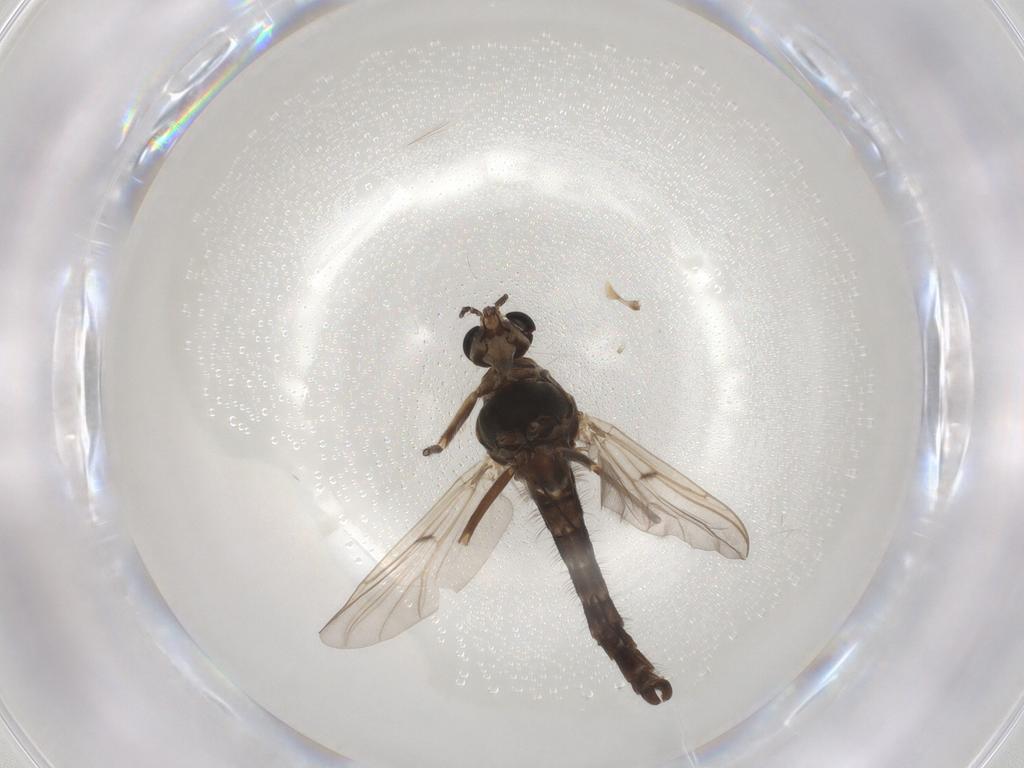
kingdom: Animalia
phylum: Arthropoda
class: Insecta
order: Diptera
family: Chironomidae
